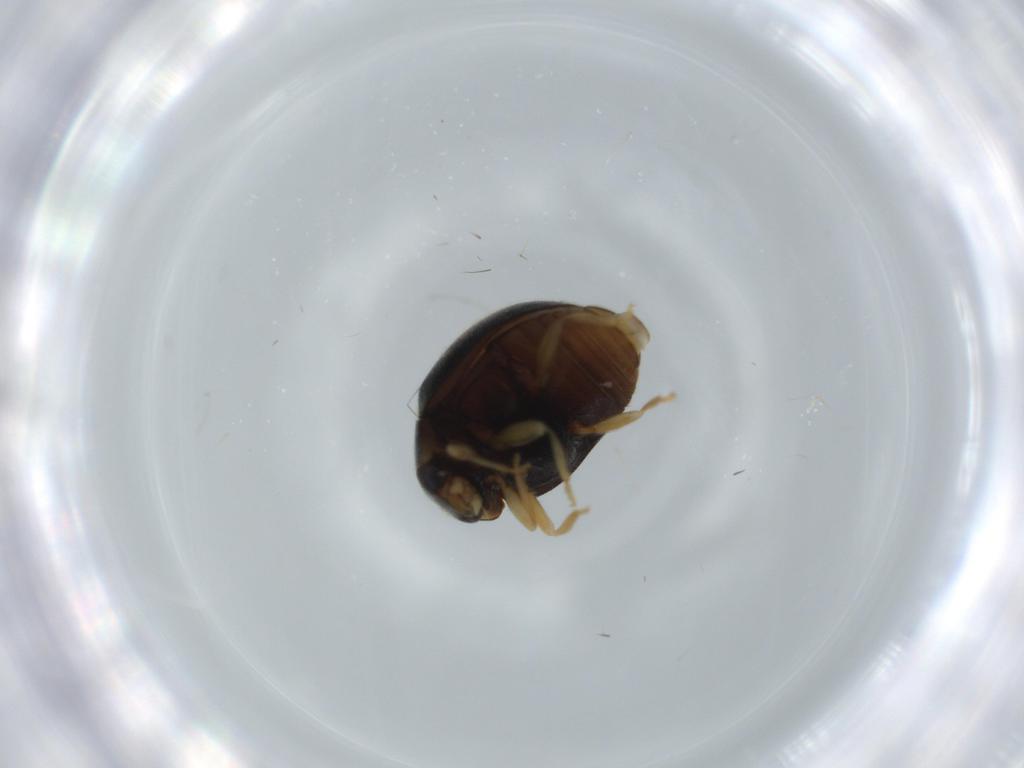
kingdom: Animalia
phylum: Arthropoda
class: Insecta
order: Coleoptera
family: Coccinellidae
